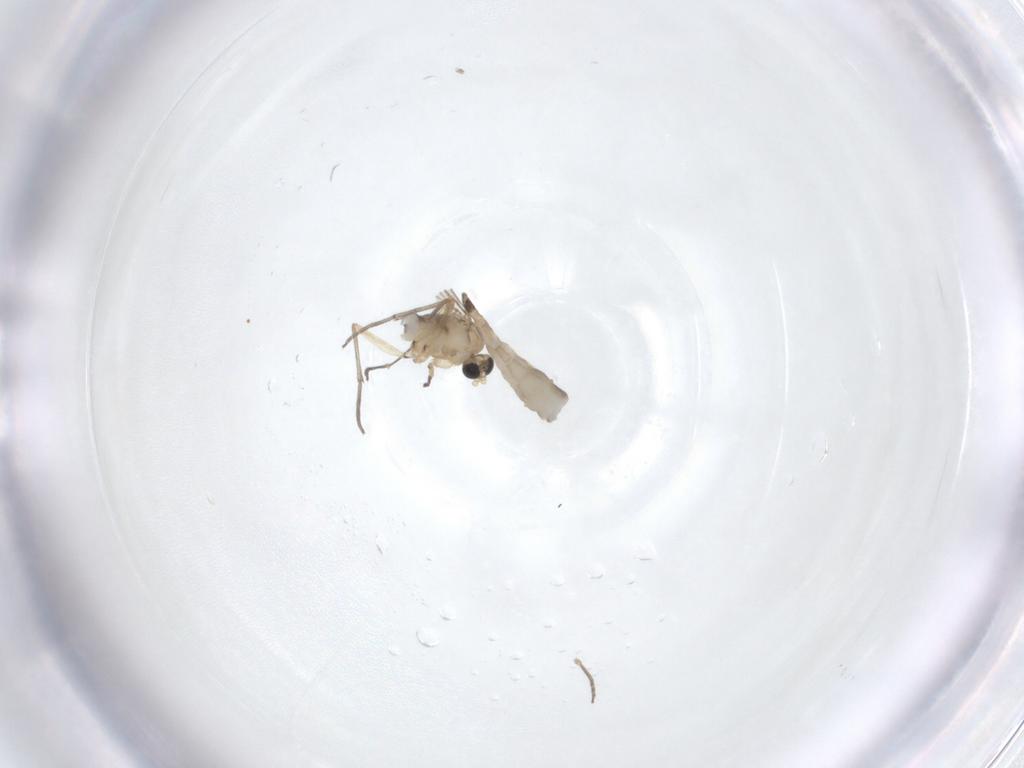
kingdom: Animalia
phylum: Arthropoda
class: Insecta
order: Diptera
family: Sciaridae
